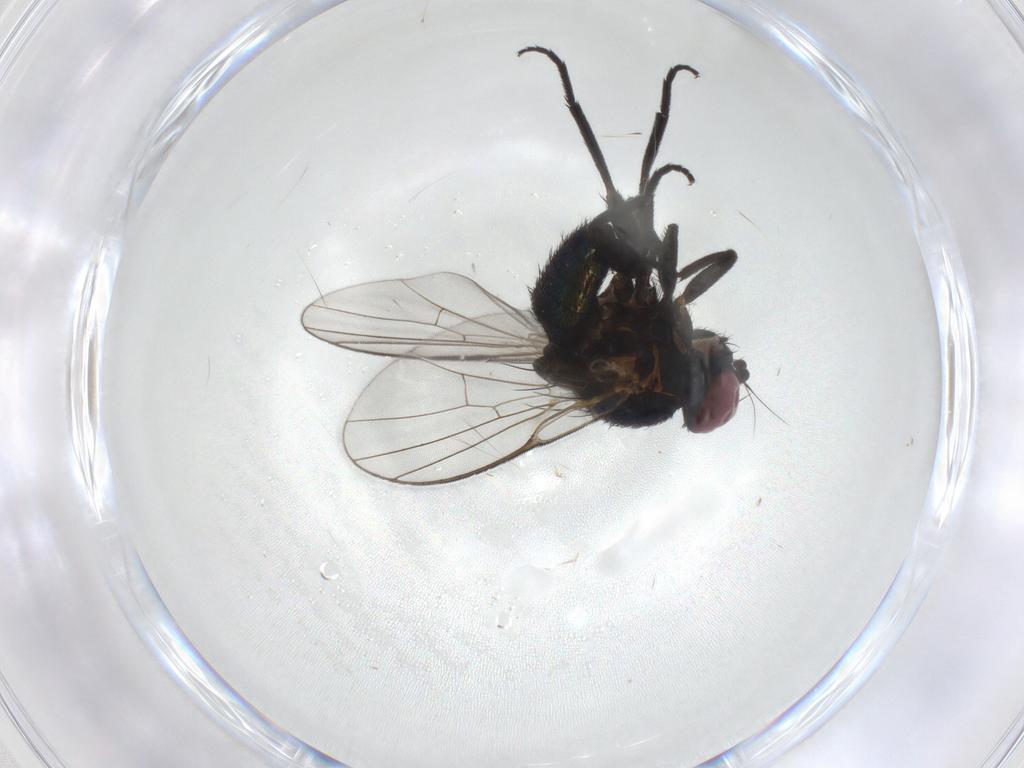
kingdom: Animalia
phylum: Arthropoda
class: Insecta
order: Diptera
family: Agromyzidae
